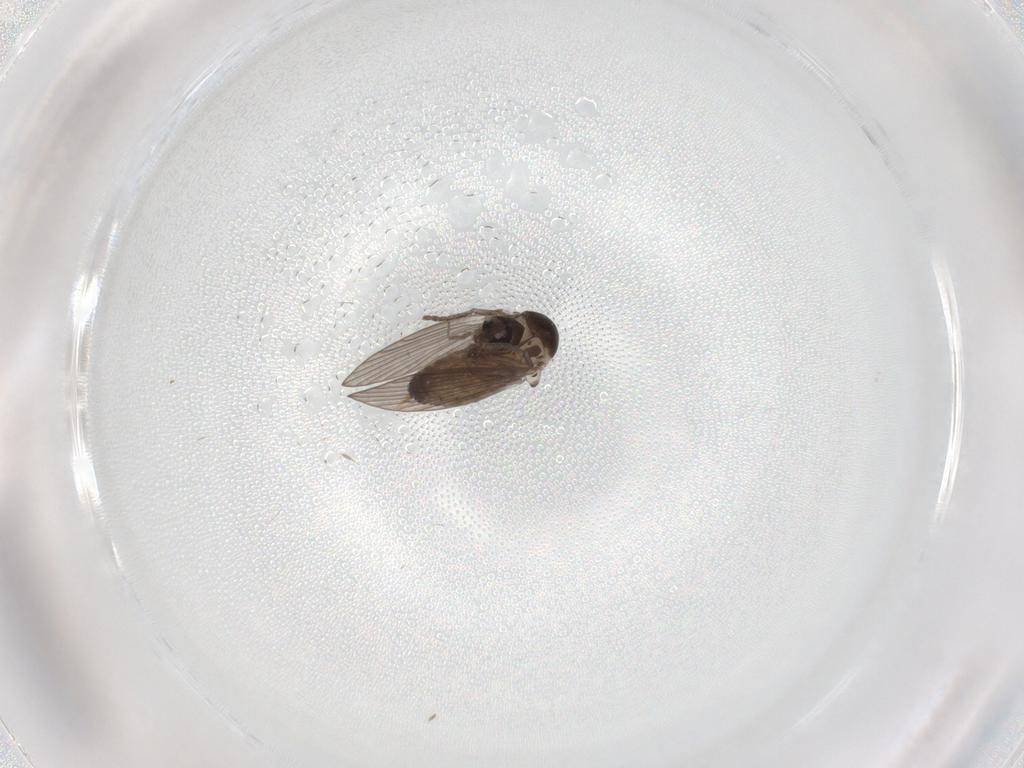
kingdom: Animalia
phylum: Arthropoda
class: Insecta
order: Diptera
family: Psychodidae
